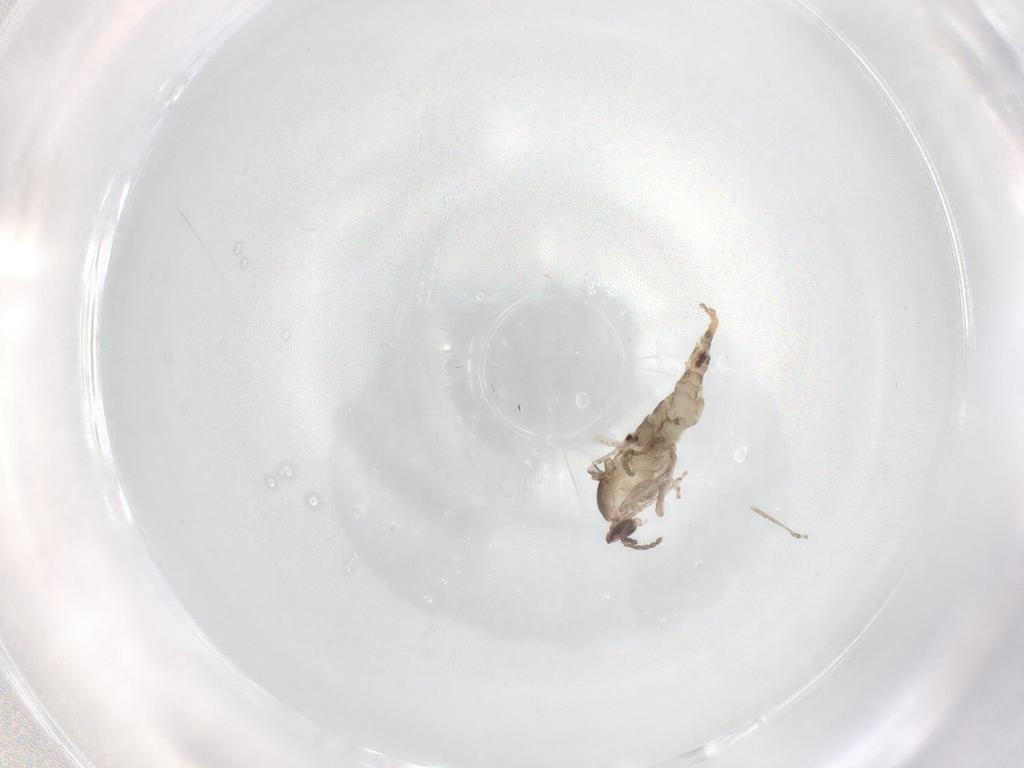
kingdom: Animalia
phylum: Arthropoda
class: Insecta
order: Diptera
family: Cecidomyiidae
